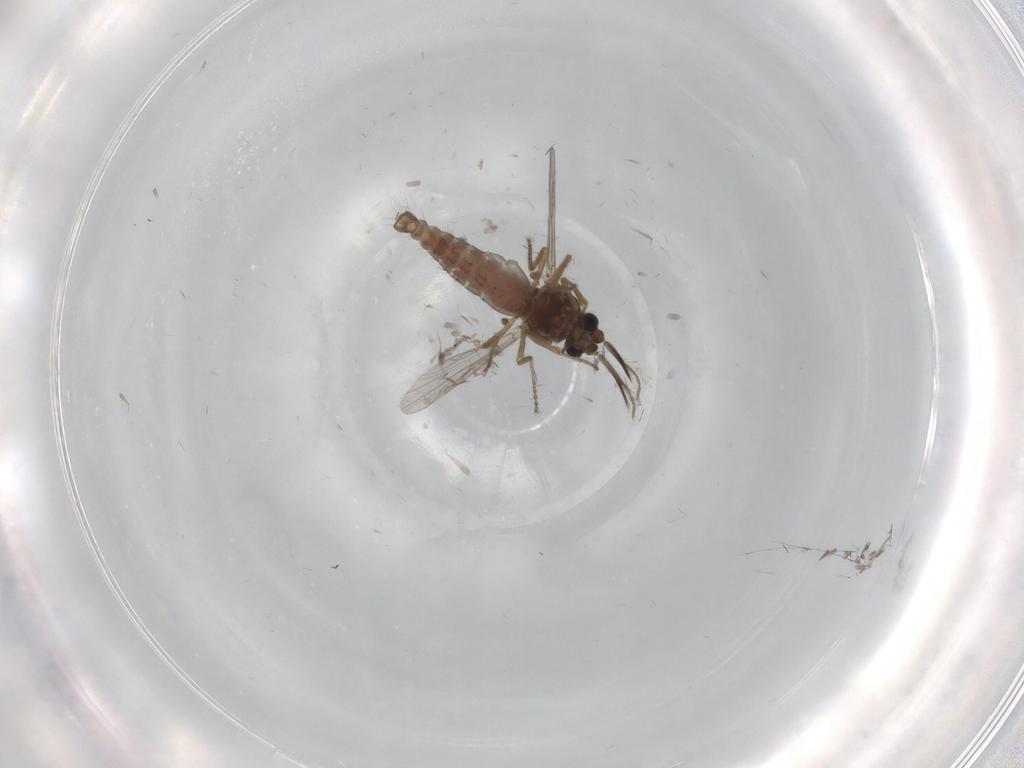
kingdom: Animalia
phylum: Arthropoda
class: Insecta
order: Diptera
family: Ceratopogonidae
